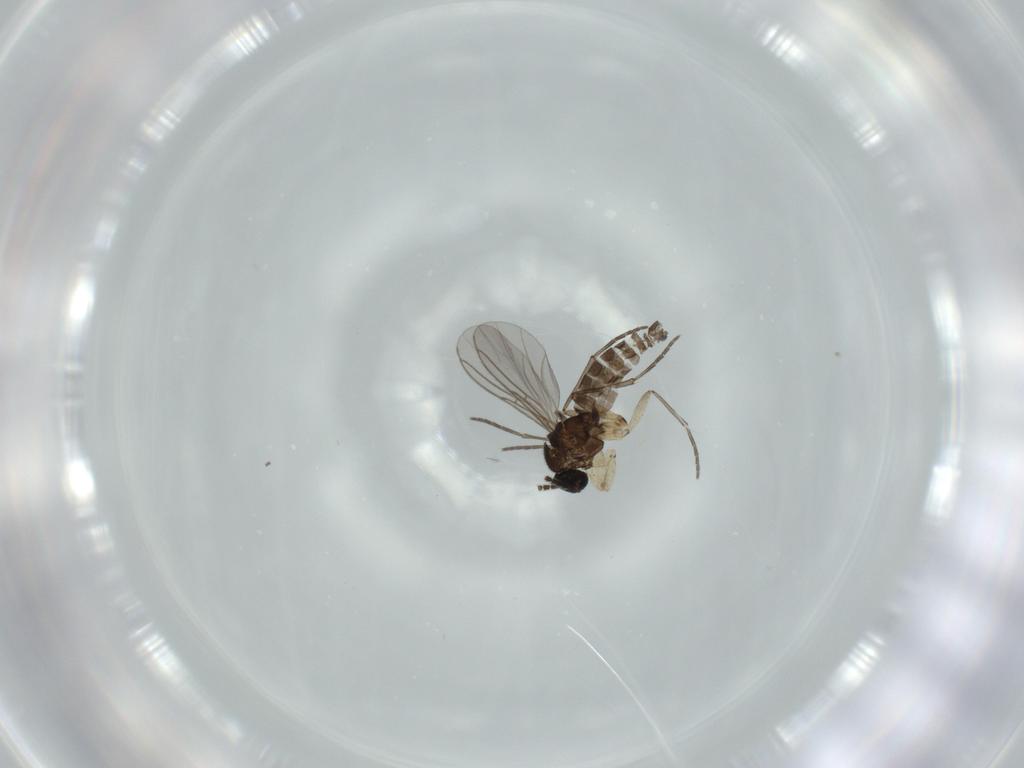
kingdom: Animalia
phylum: Arthropoda
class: Insecta
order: Diptera
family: Sciaridae
